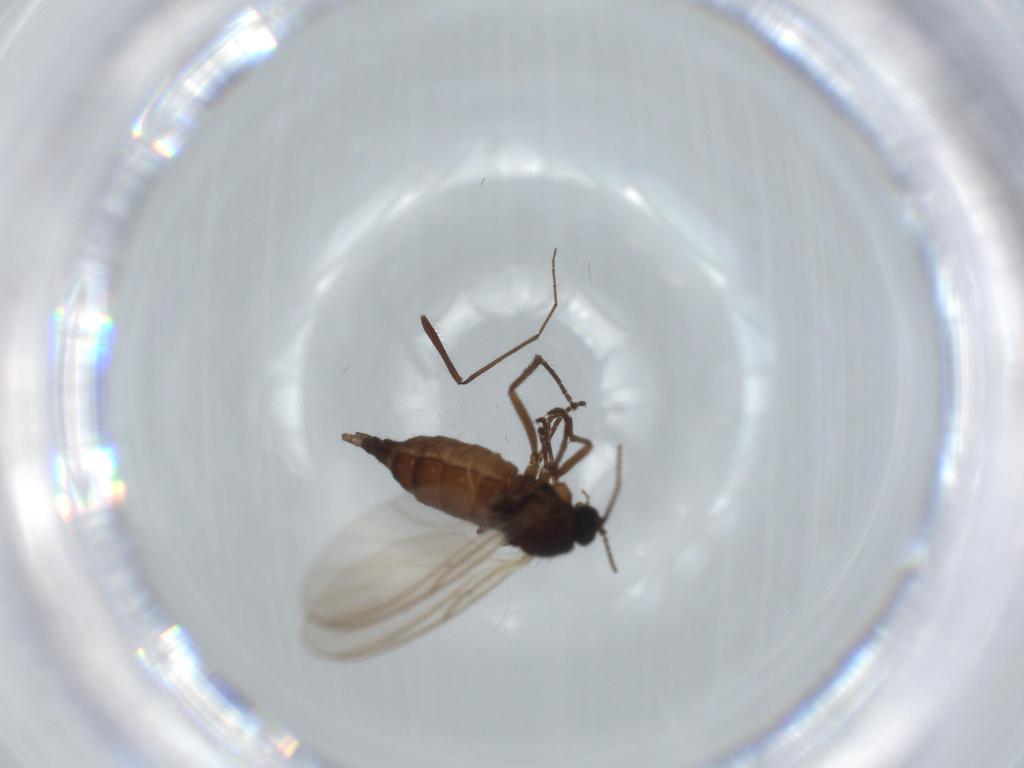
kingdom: Animalia
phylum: Arthropoda
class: Insecta
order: Diptera
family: Sciaridae
